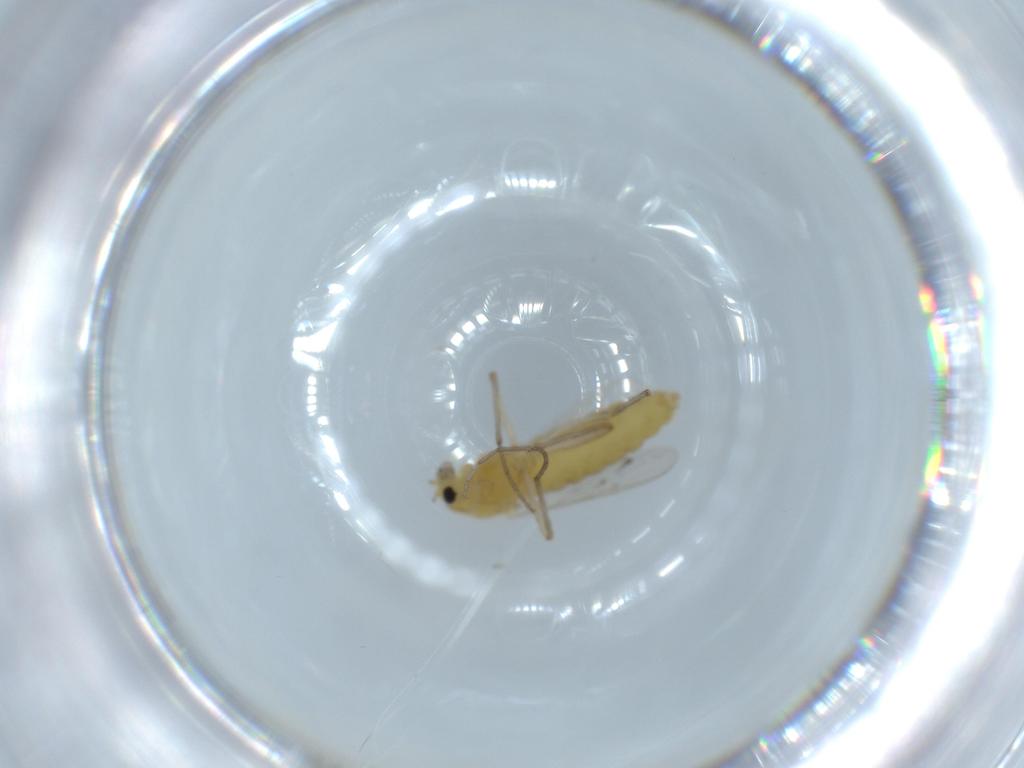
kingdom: Animalia
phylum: Arthropoda
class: Insecta
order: Diptera
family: Chironomidae
